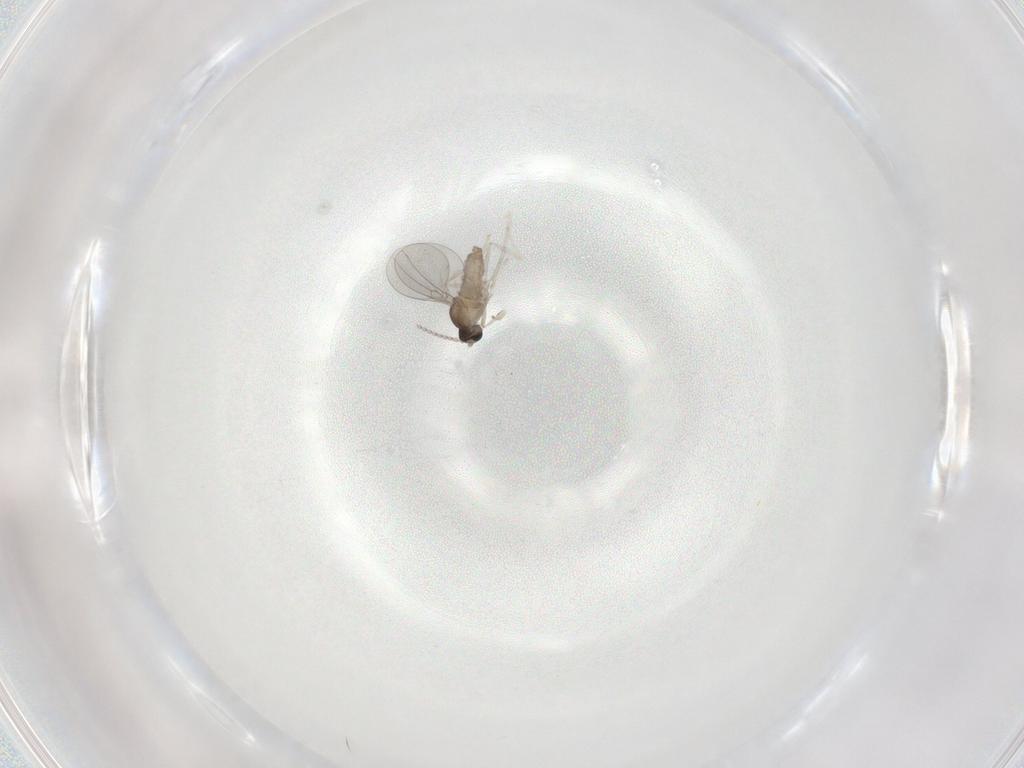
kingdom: Animalia
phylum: Arthropoda
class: Insecta
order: Diptera
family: Cecidomyiidae
